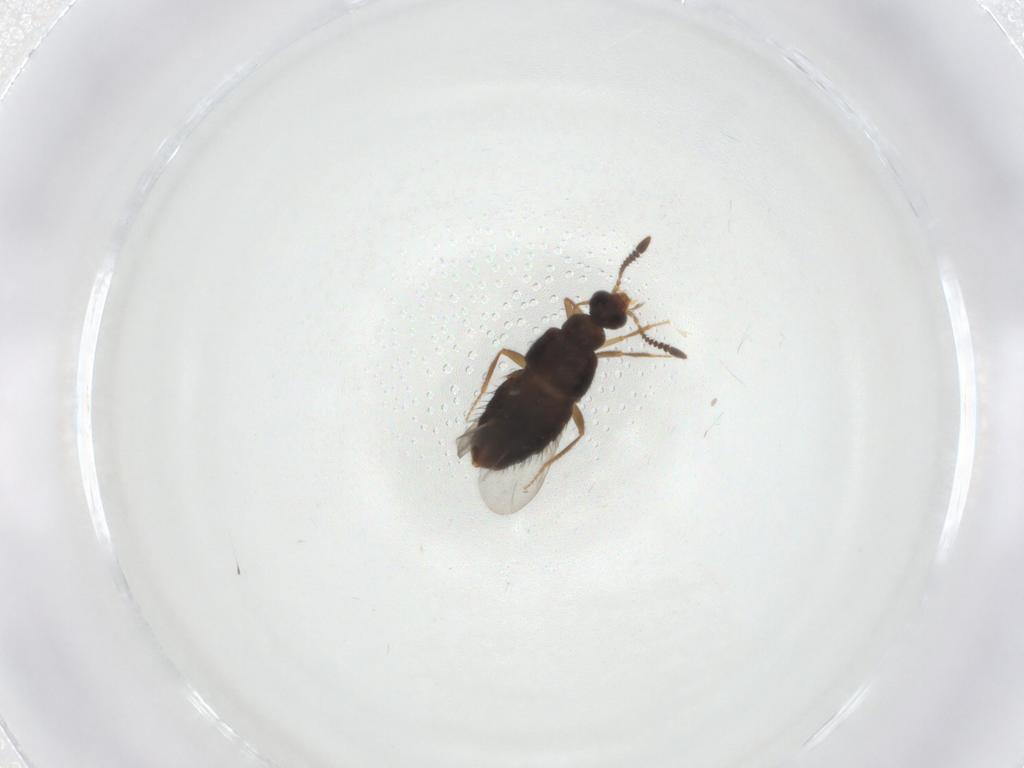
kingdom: Animalia
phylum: Arthropoda
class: Insecta
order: Coleoptera
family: Staphylinidae
